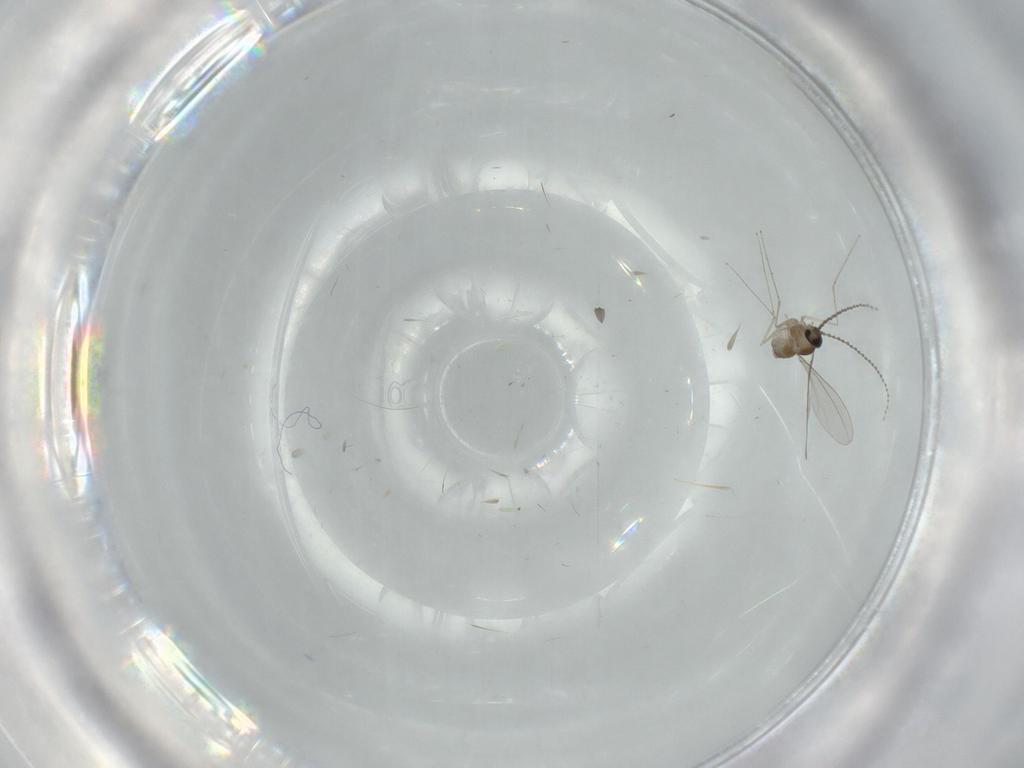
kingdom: Animalia
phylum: Arthropoda
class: Insecta
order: Diptera
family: Cecidomyiidae
